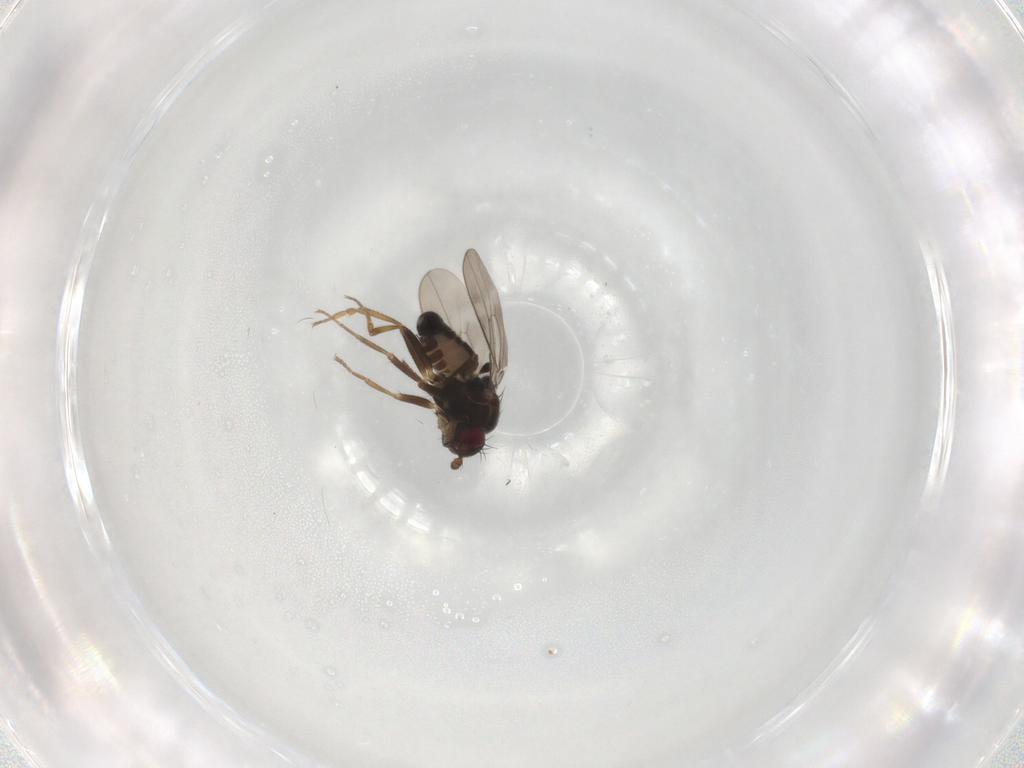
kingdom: Animalia
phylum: Arthropoda
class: Insecta
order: Diptera
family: Sphaeroceridae
